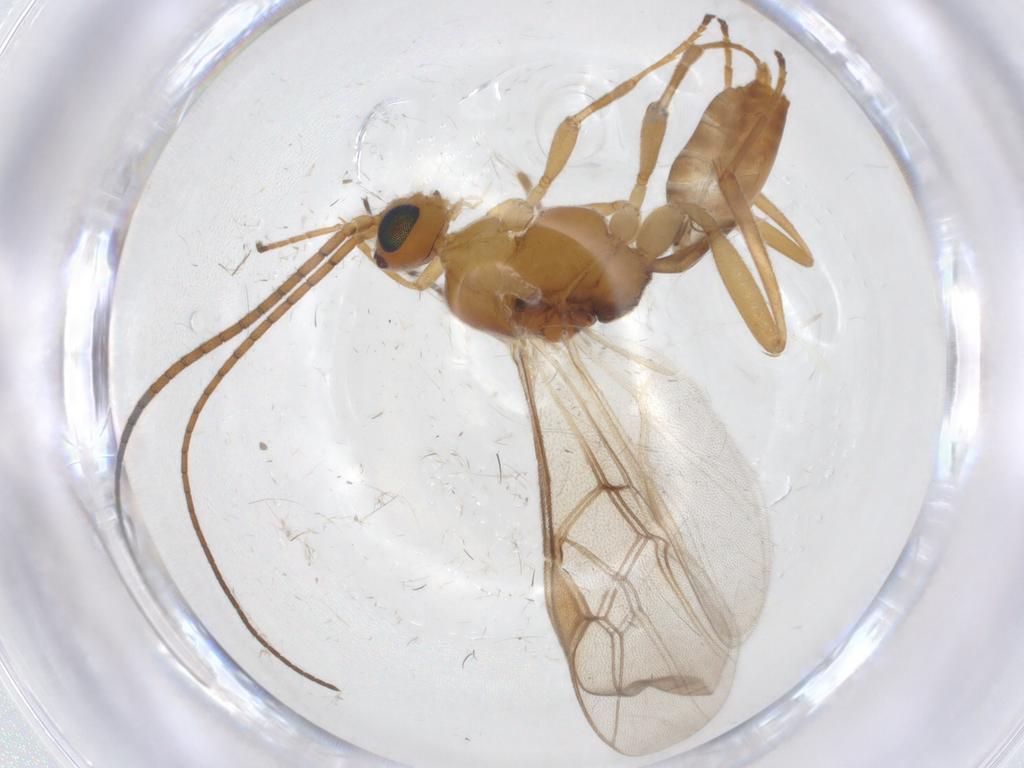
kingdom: Animalia
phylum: Arthropoda
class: Insecta
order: Hymenoptera
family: Braconidae
